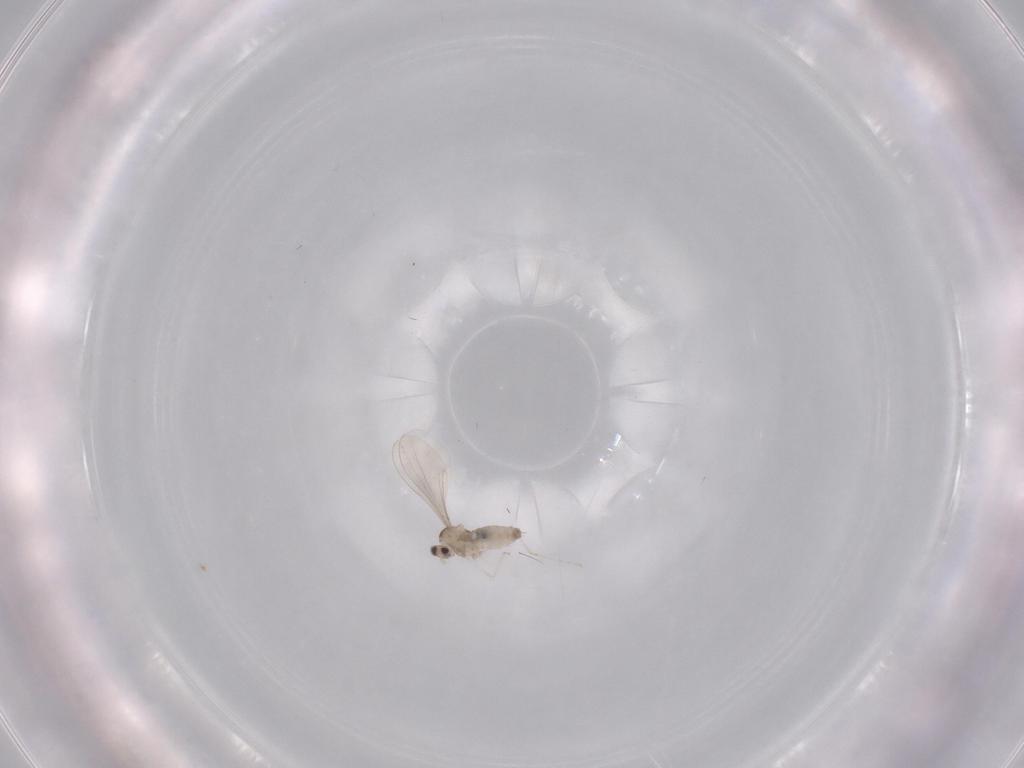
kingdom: Animalia
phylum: Arthropoda
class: Insecta
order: Diptera
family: Cecidomyiidae
